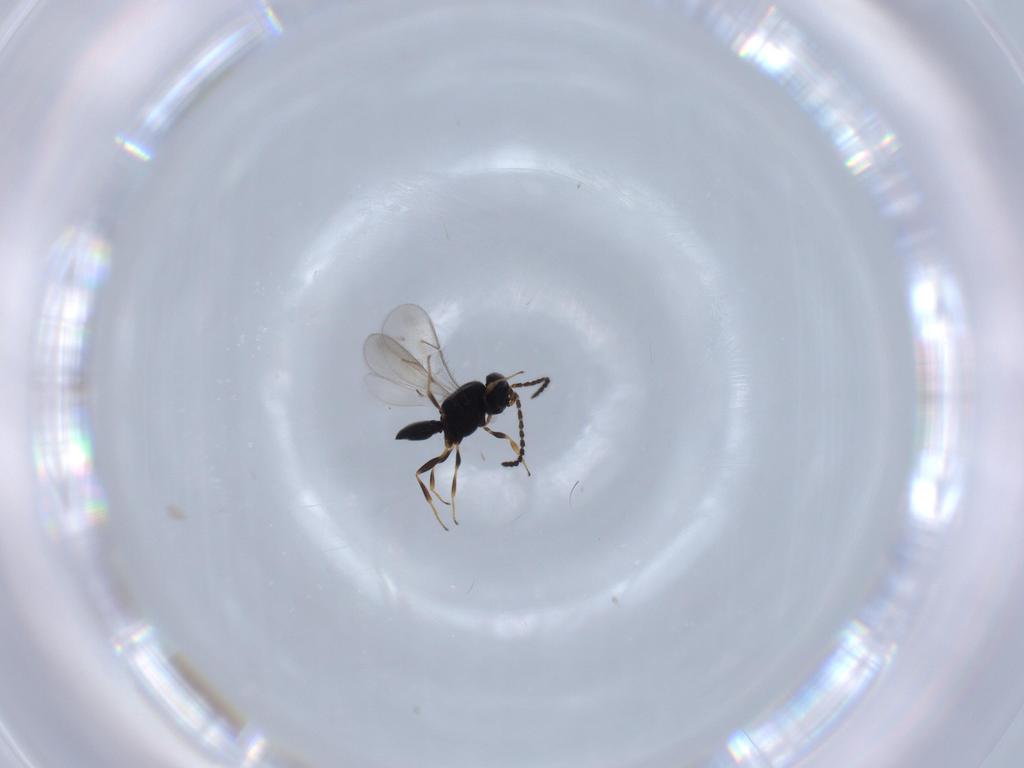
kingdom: Animalia
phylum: Arthropoda
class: Insecta
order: Hymenoptera
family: Scelionidae
